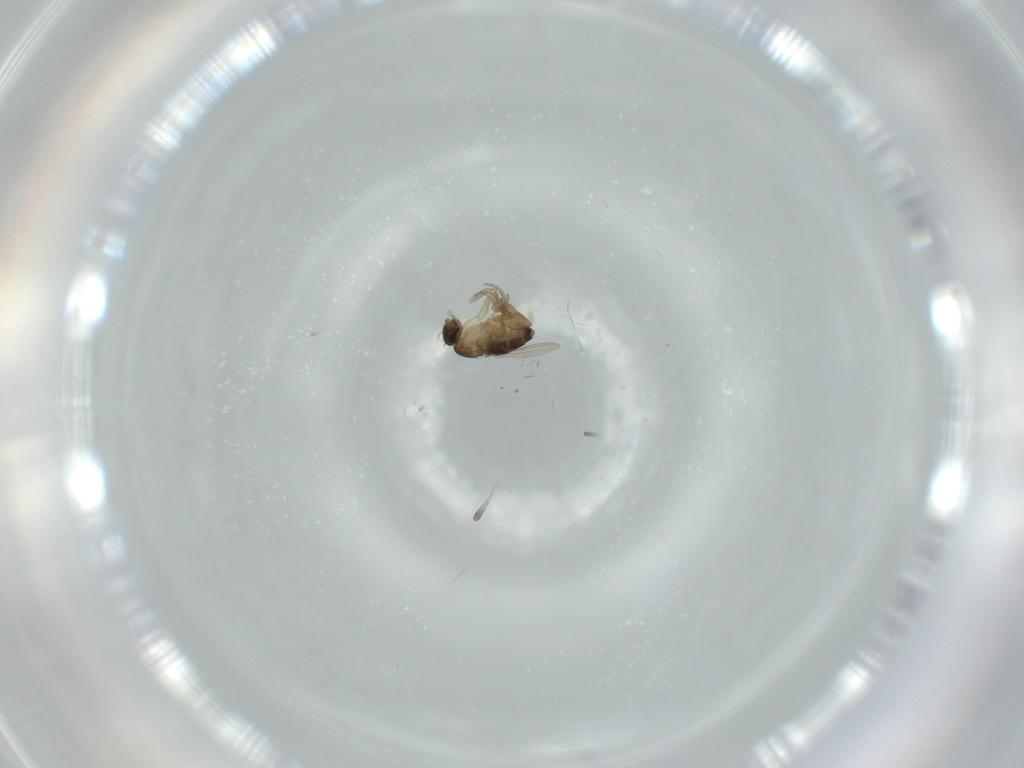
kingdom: Animalia
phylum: Arthropoda
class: Insecta
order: Diptera
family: Phoridae
